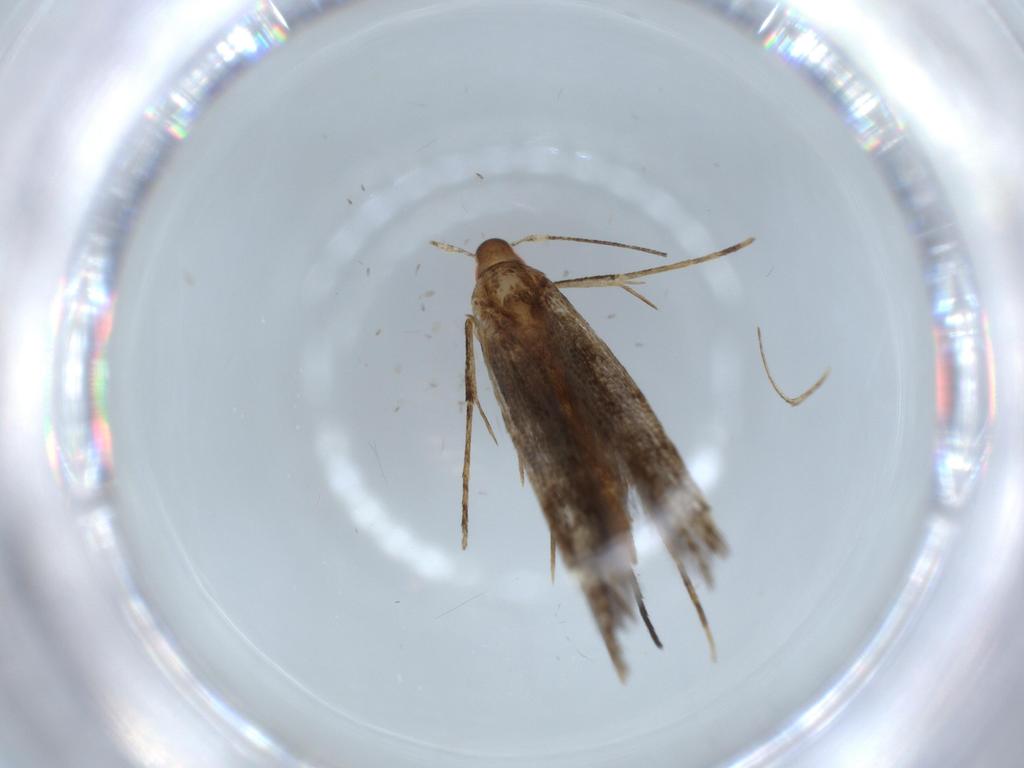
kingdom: Animalia
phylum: Arthropoda
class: Insecta
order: Lepidoptera
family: Cosmopterigidae
